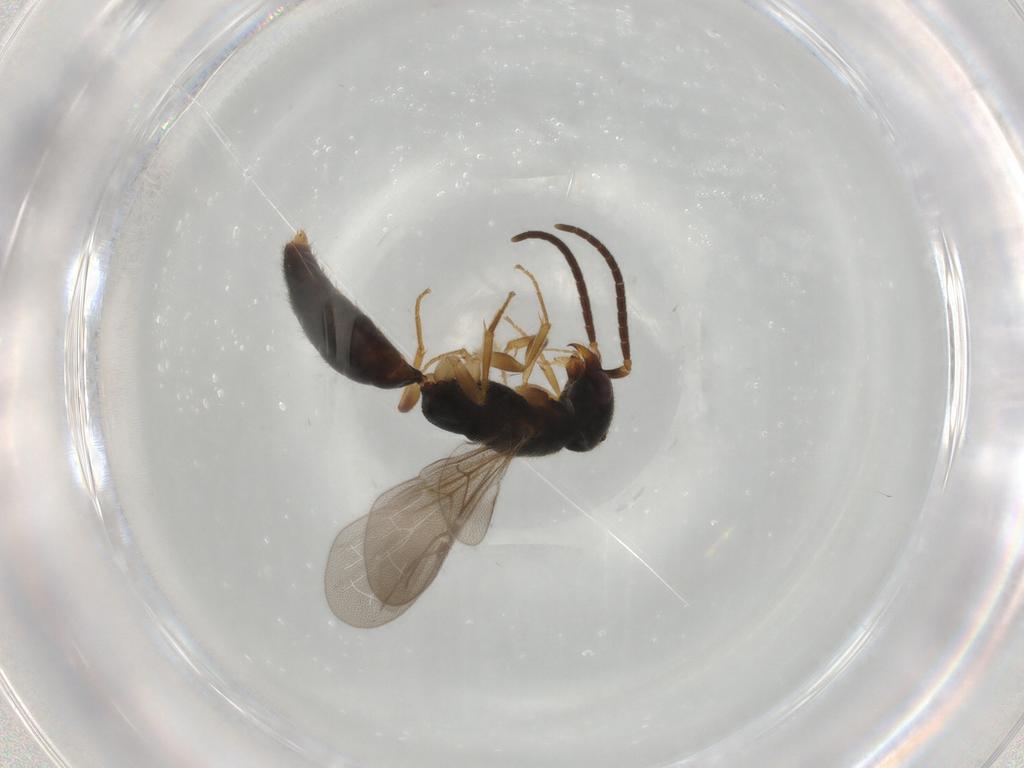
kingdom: Animalia
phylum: Arthropoda
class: Insecta
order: Hymenoptera
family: Bethylidae
